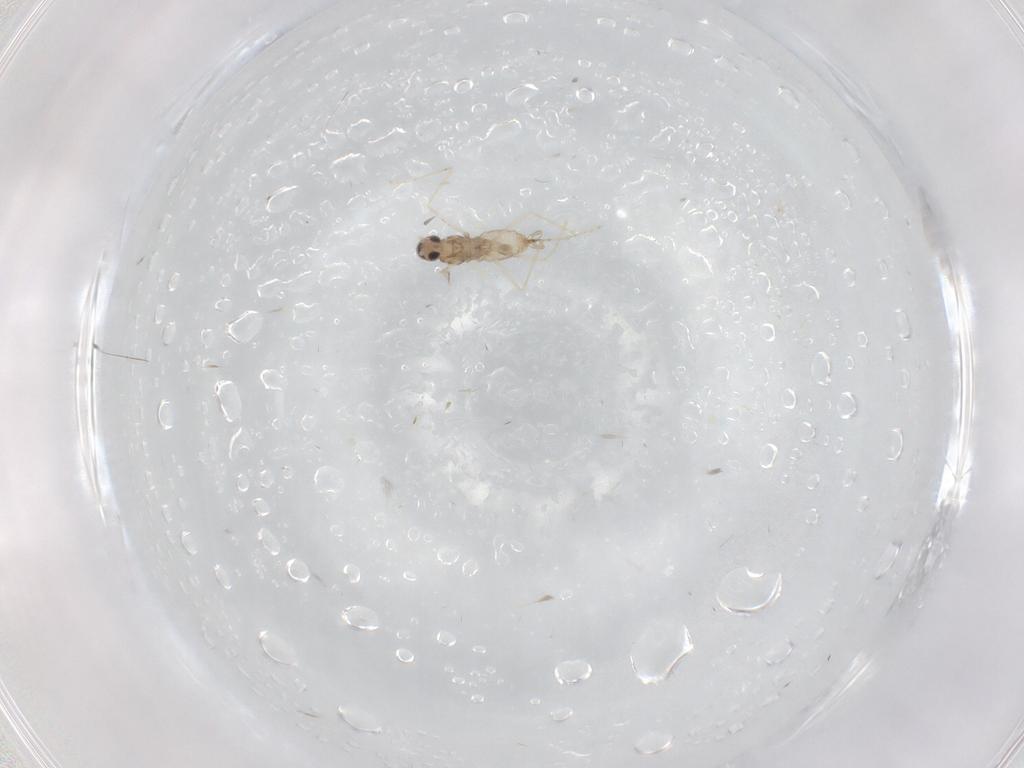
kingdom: Animalia
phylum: Arthropoda
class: Insecta
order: Diptera
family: Cecidomyiidae
